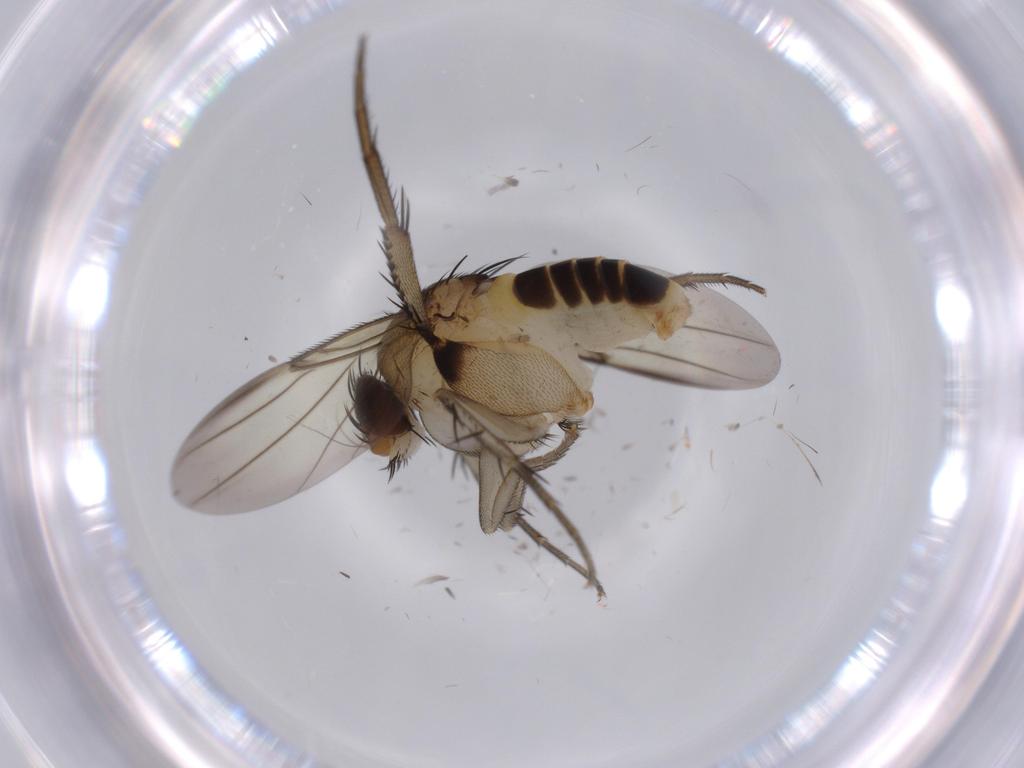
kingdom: Animalia
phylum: Arthropoda
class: Insecta
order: Diptera
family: Phoridae
